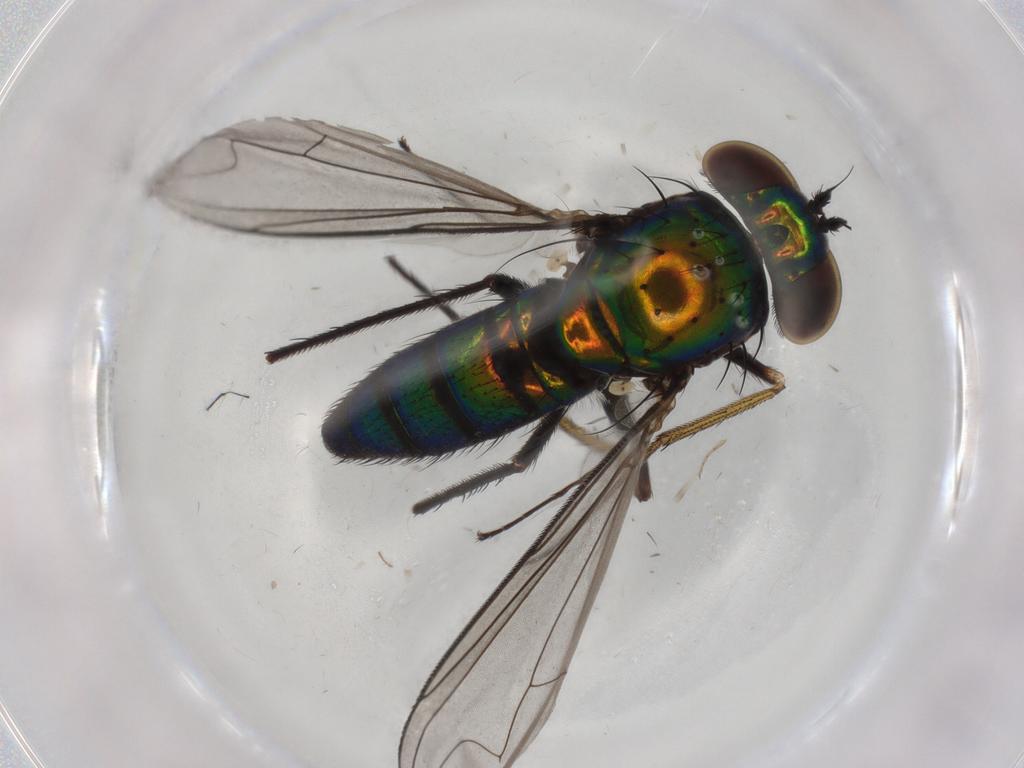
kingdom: Animalia
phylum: Arthropoda
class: Insecta
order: Diptera
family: Dolichopodidae
